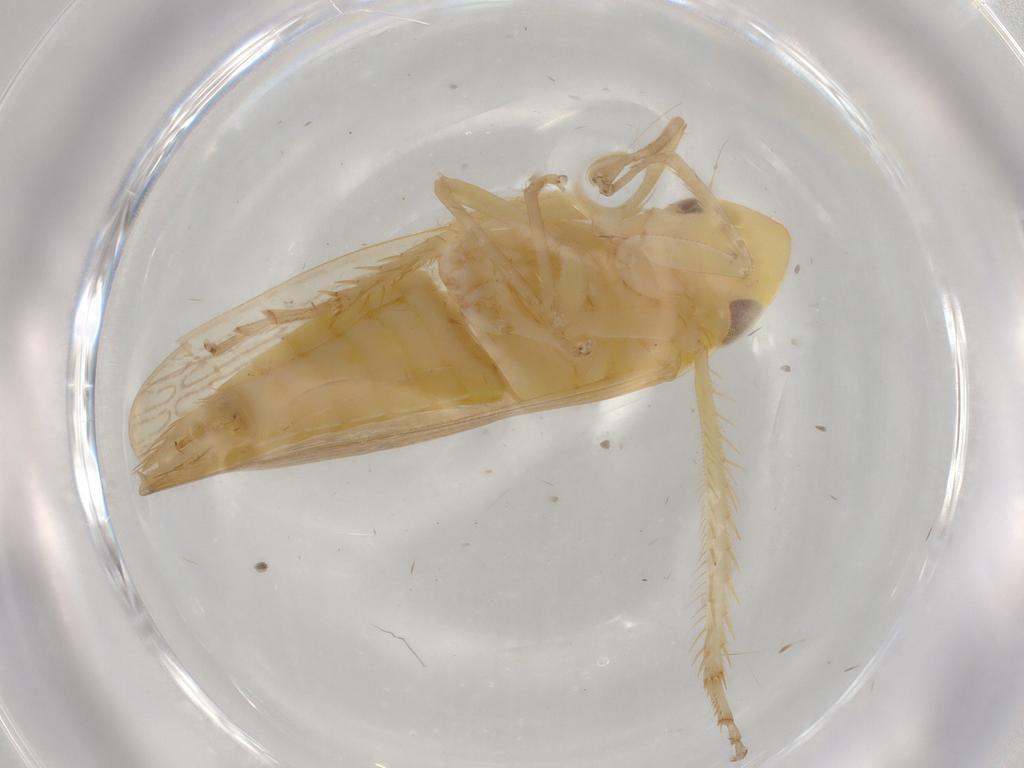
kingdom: Animalia
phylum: Arthropoda
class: Insecta
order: Hemiptera
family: Cicadellidae
